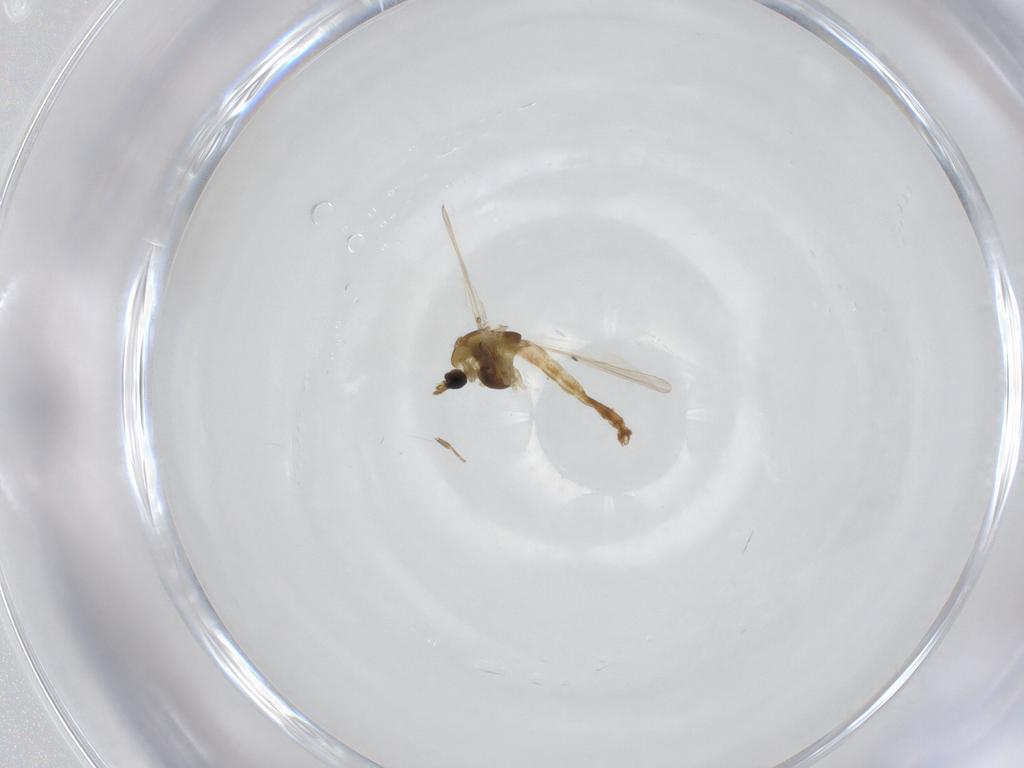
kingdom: Animalia
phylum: Arthropoda
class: Insecta
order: Diptera
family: Chironomidae
